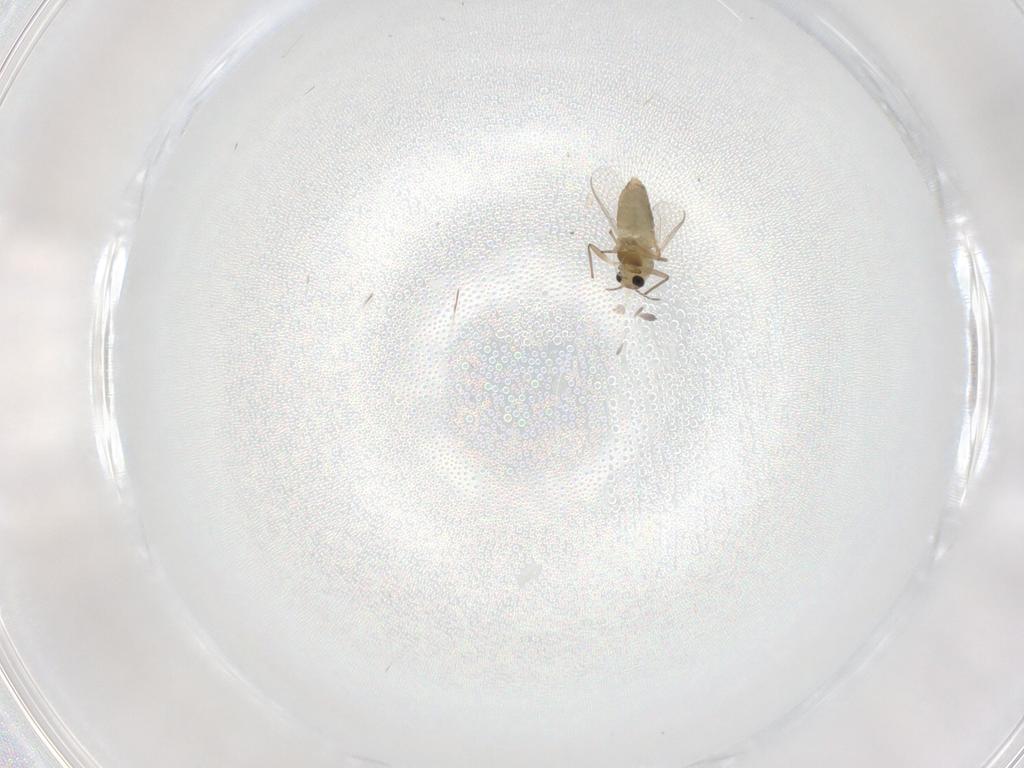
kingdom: Animalia
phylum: Arthropoda
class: Insecta
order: Diptera
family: Cecidomyiidae
